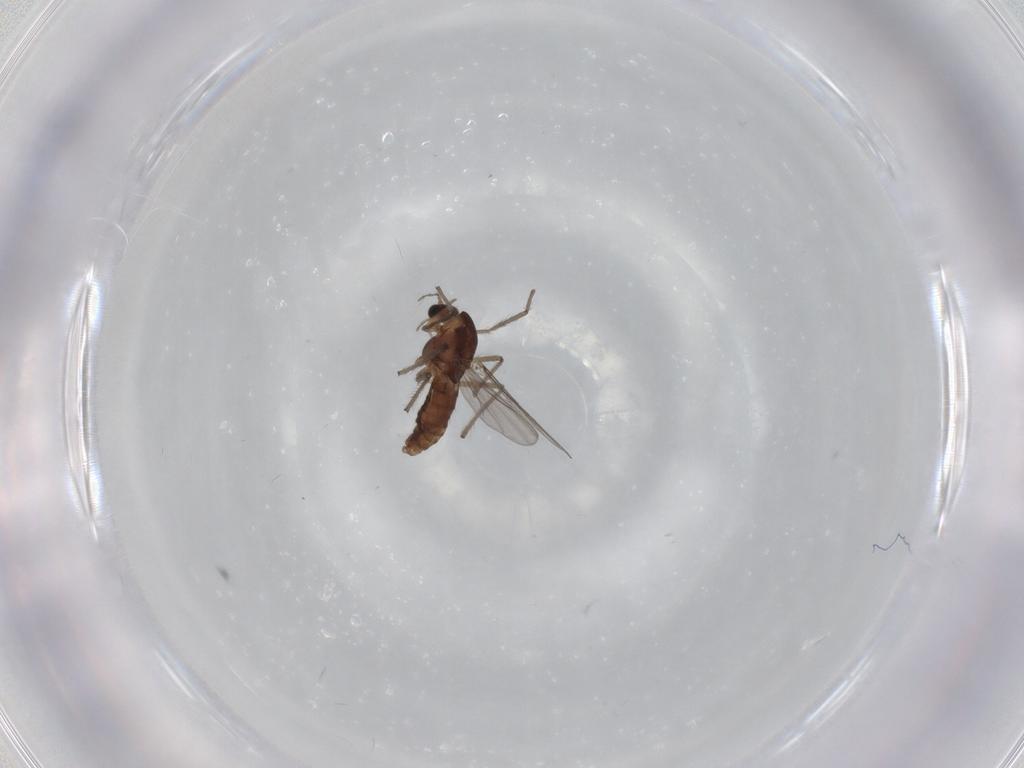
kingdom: Animalia
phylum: Arthropoda
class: Insecta
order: Diptera
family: Chironomidae
